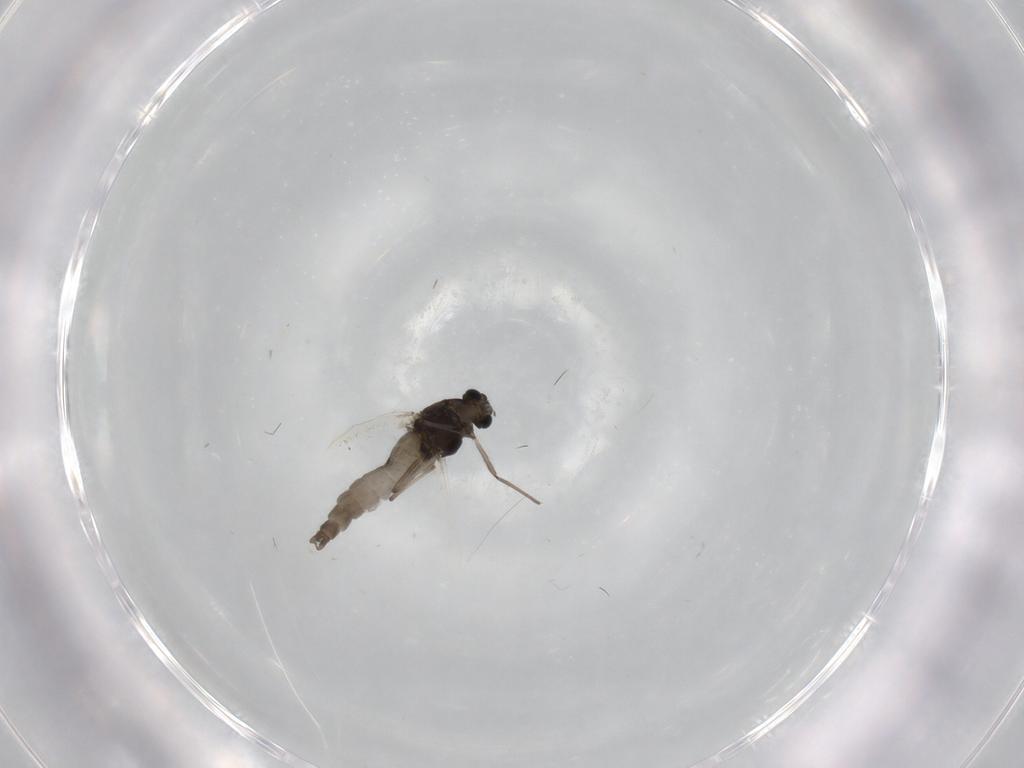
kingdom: Animalia
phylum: Arthropoda
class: Insecta
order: Diptera
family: Chironomidae
